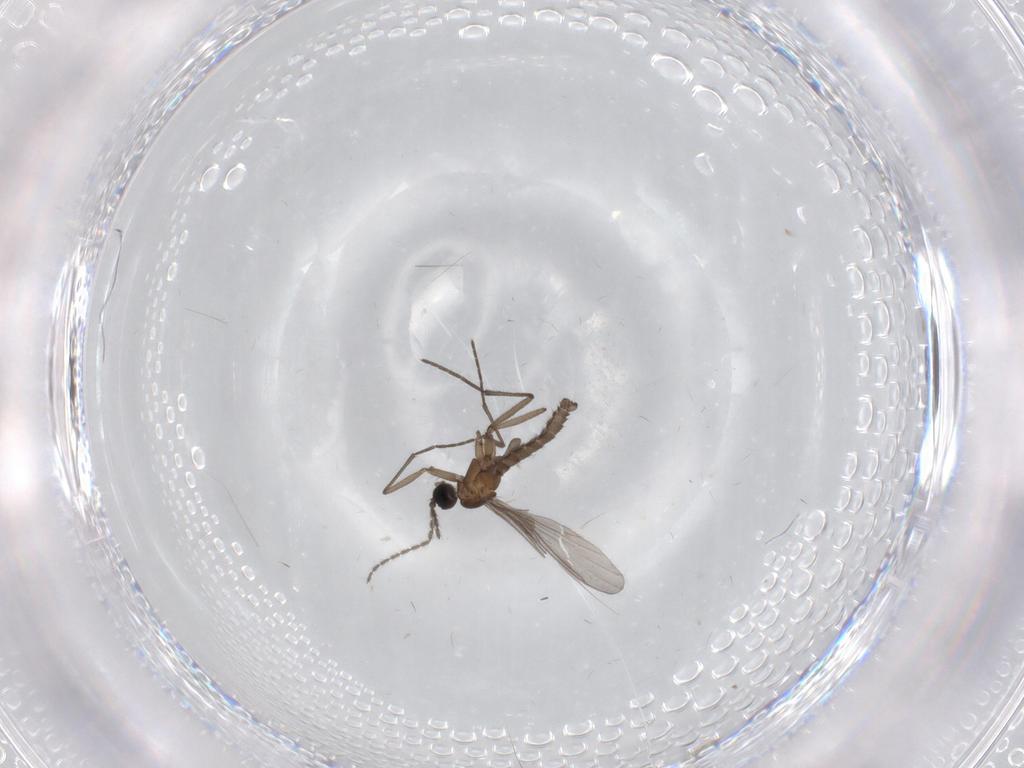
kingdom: Animalia
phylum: Arthropoda
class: Insecta
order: Diptera
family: Sciaridae
